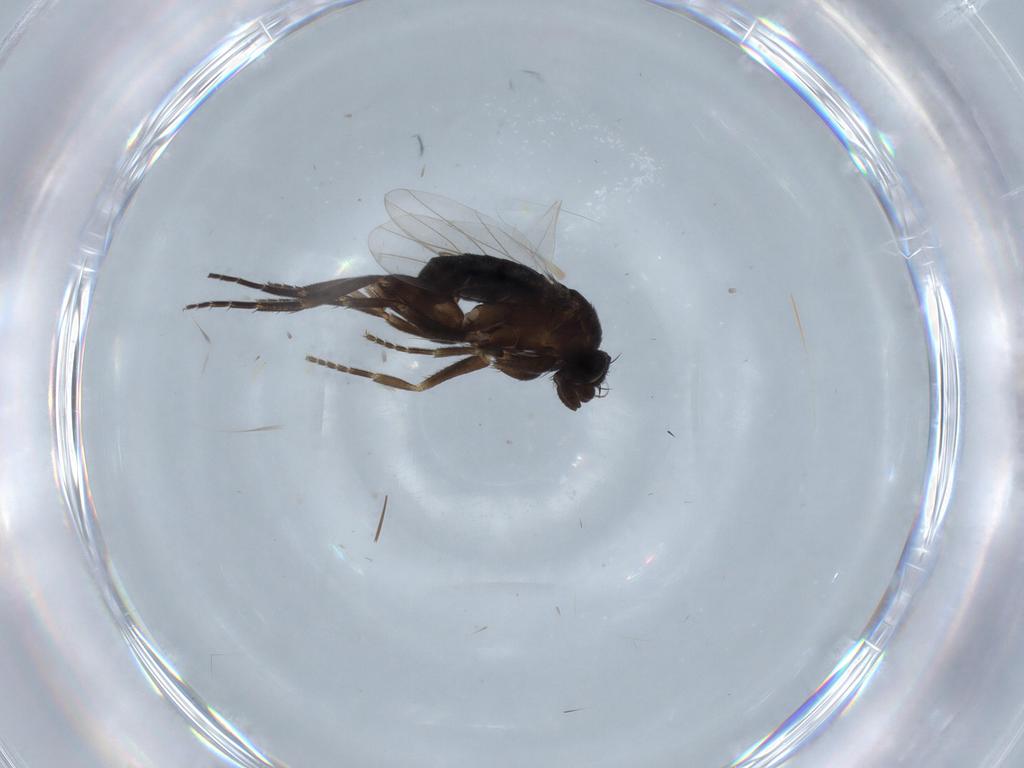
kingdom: Animalia
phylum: Arthropoda
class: Insecta
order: Diptera
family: Phoridae
